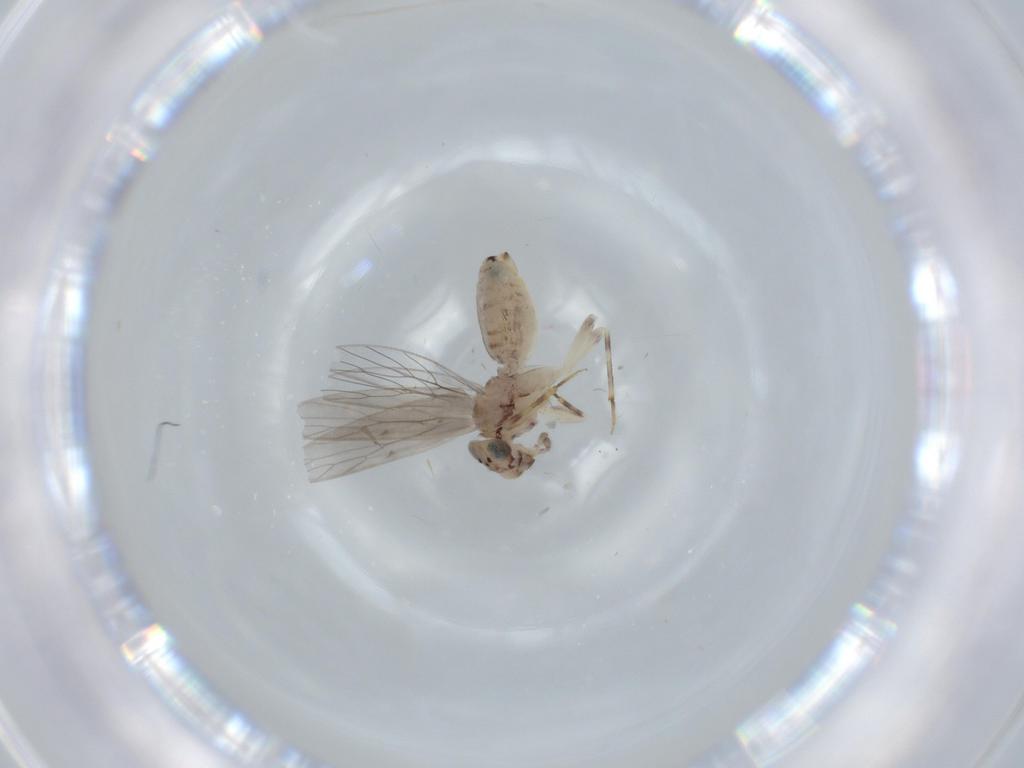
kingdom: Animalia
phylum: Arthropoda
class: Insecta
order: Psocodea
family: Lepidopsocidae
